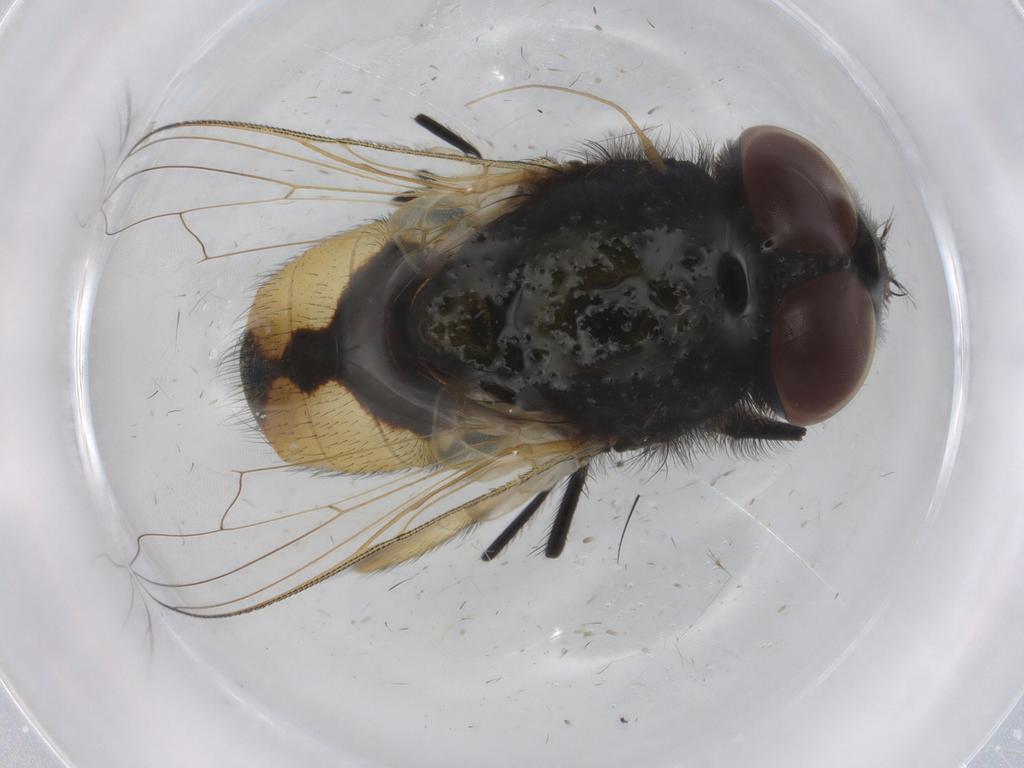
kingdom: Animalia
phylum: Arthropoda
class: Insecta
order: Diptera
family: Muscidae
